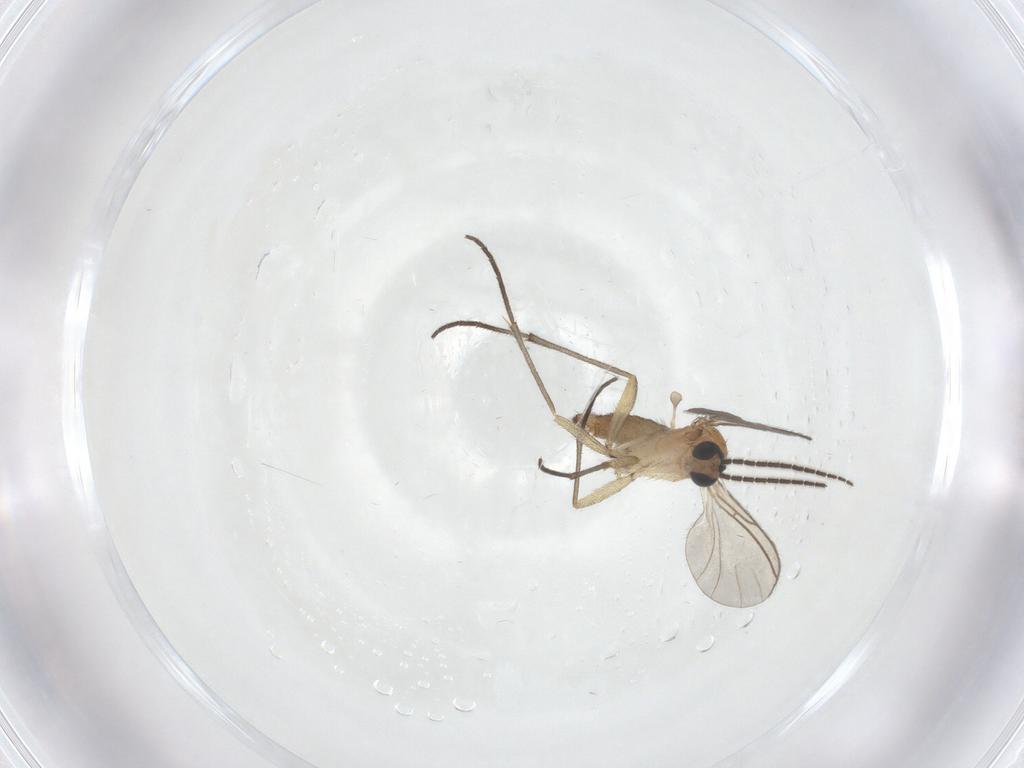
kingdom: Animalia
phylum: Arthropoda
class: Insecta
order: Diptera
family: Sciaridae
